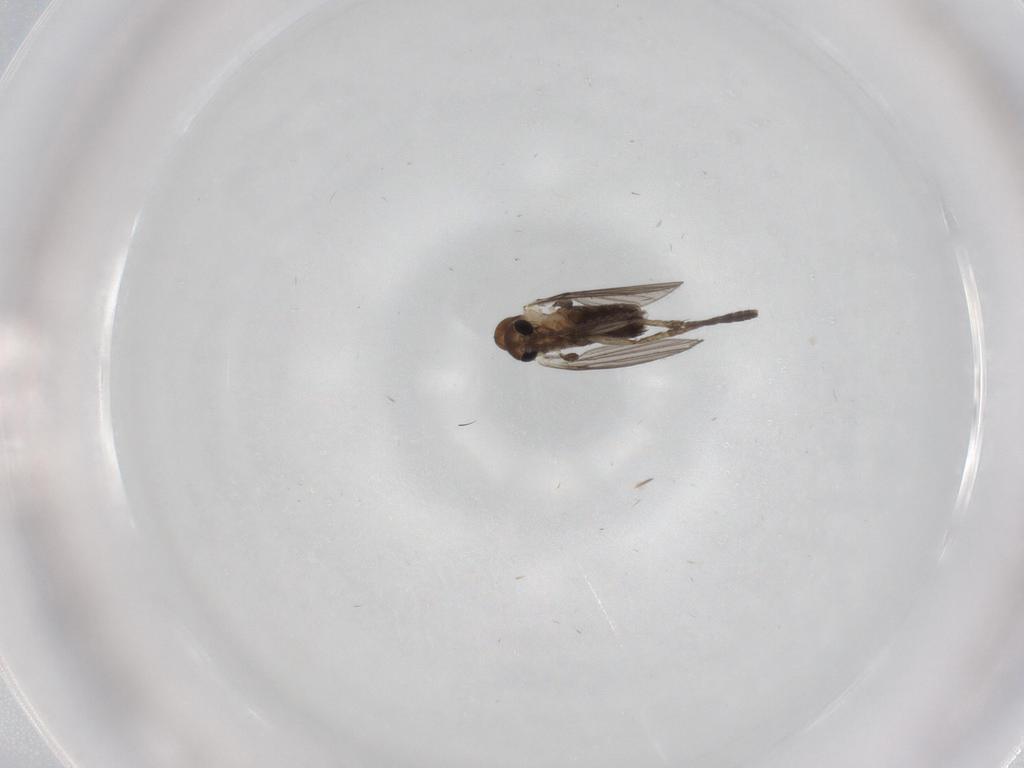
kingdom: Animalia
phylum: Arthropoda
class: Insecta
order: Diptera
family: Psychodidae
